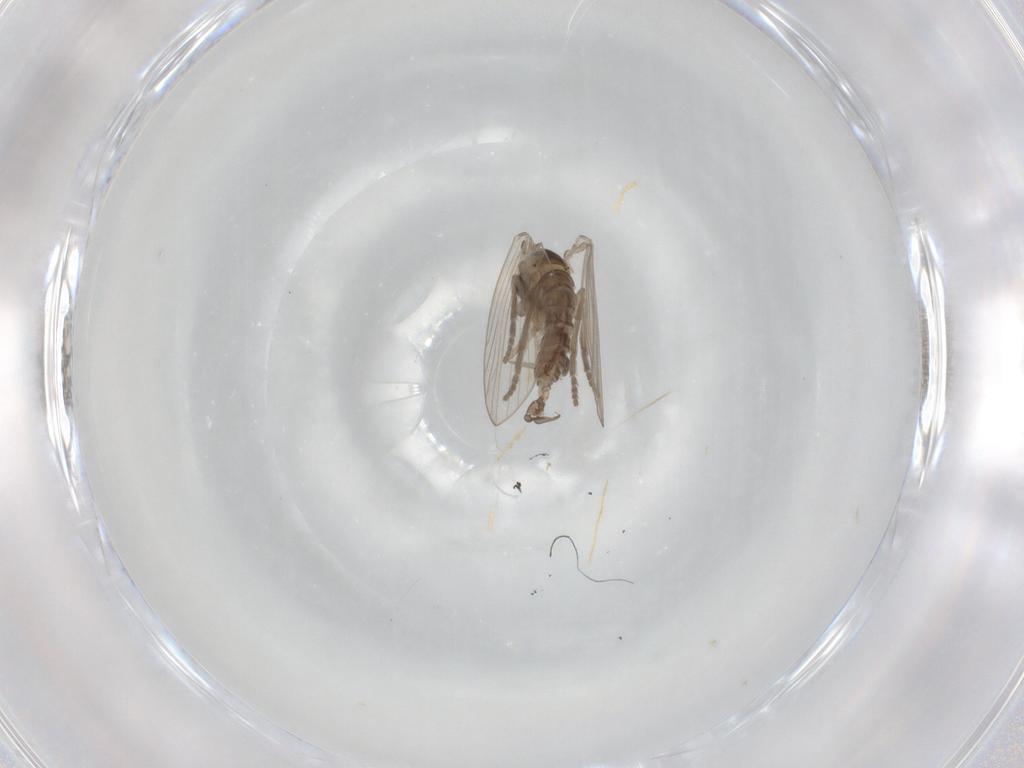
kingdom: Animalia
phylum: Arthropoda
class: Insecta
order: Diptera
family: Psychodidae
